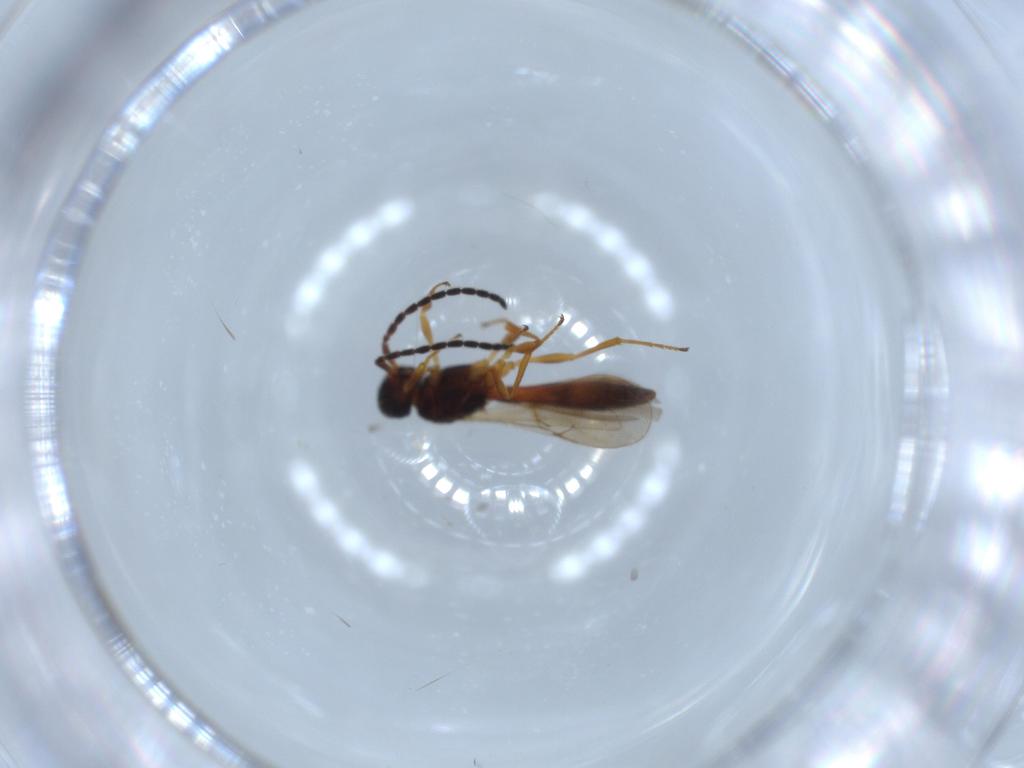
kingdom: Animalia
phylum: Arthropoda
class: Insecta
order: Hymenoptera
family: Scelionidae
